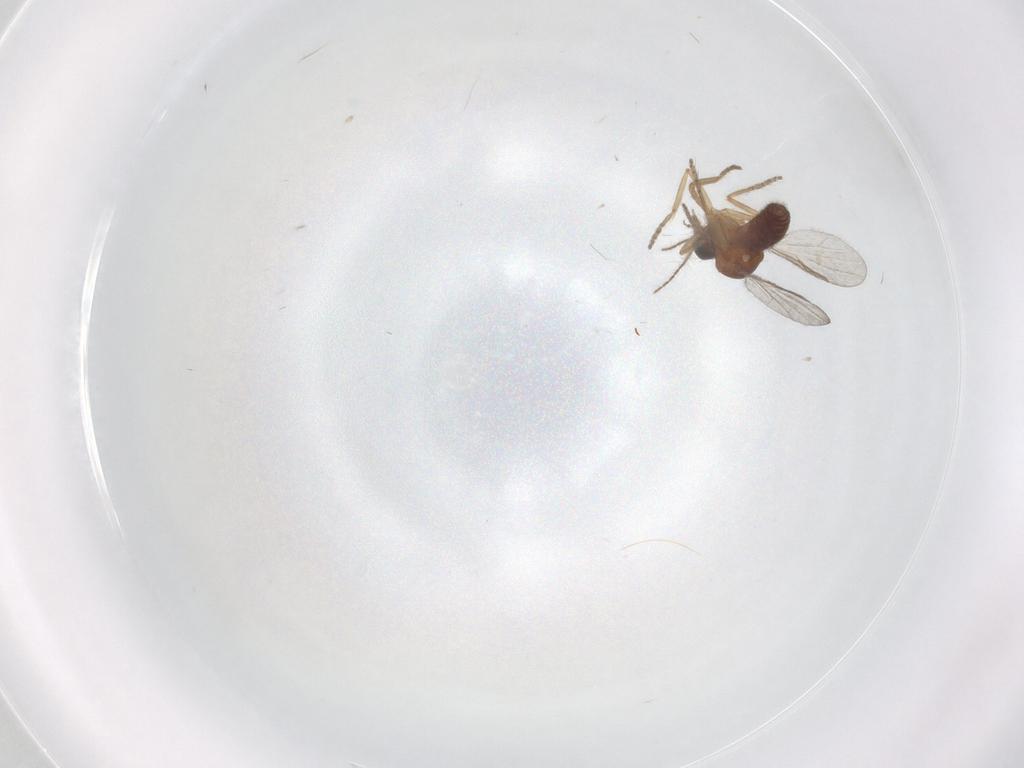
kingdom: Animalia
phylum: Arthropoda
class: Insecta
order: Diptera
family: Ceratopogonidae
